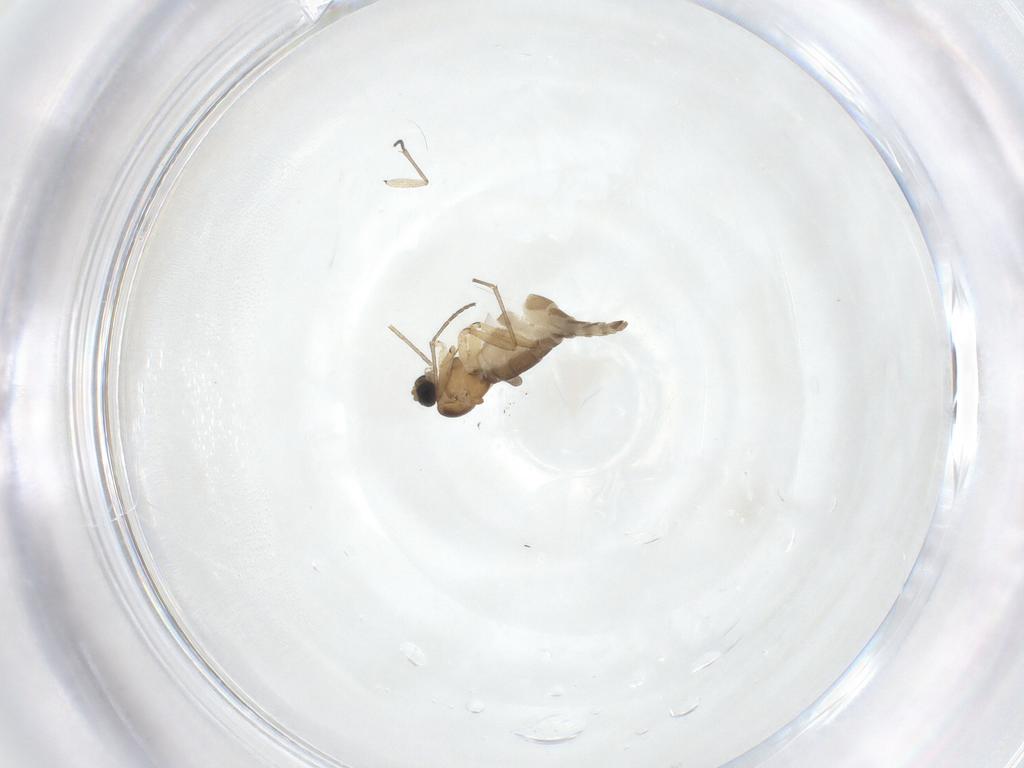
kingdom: Animalia
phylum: Arthropoda
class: Insecta
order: Diptera
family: Sciaridae
